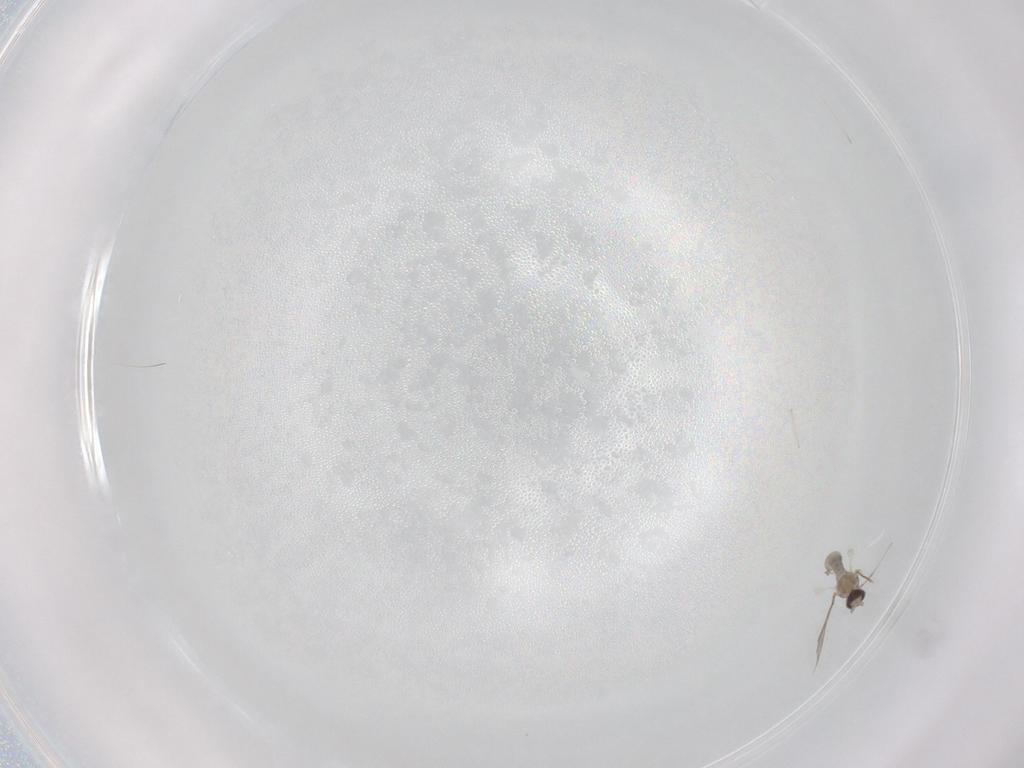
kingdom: Animalia
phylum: Arthropoda
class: Insecta
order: Diptera
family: Cecidomyiidae
